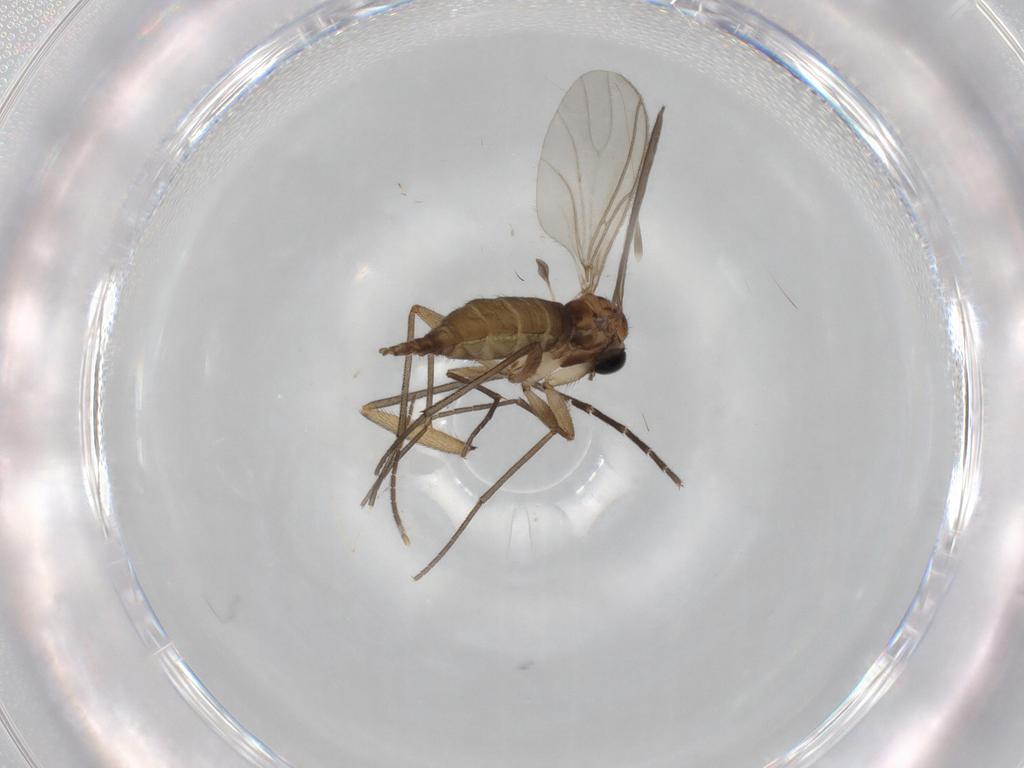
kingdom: Animalia
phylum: Arthropoda
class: Insecta
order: Diptera
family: Sciaridae
